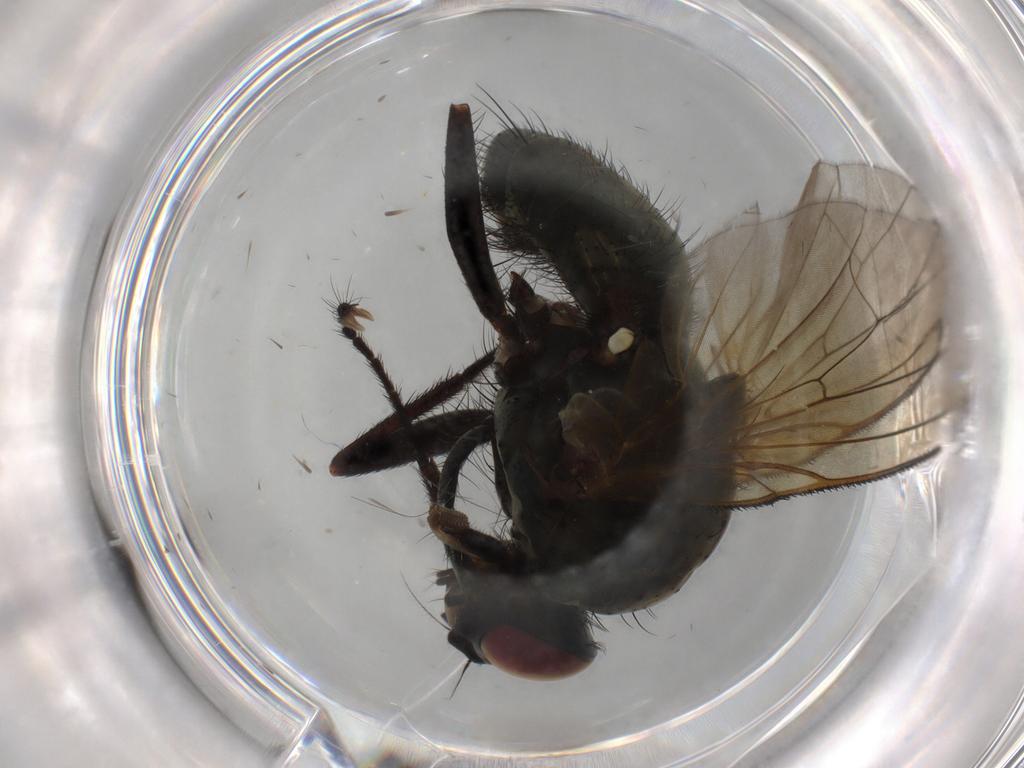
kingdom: Animalia
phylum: Arthropoda
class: Insecta
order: Diptera
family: Muscidae
